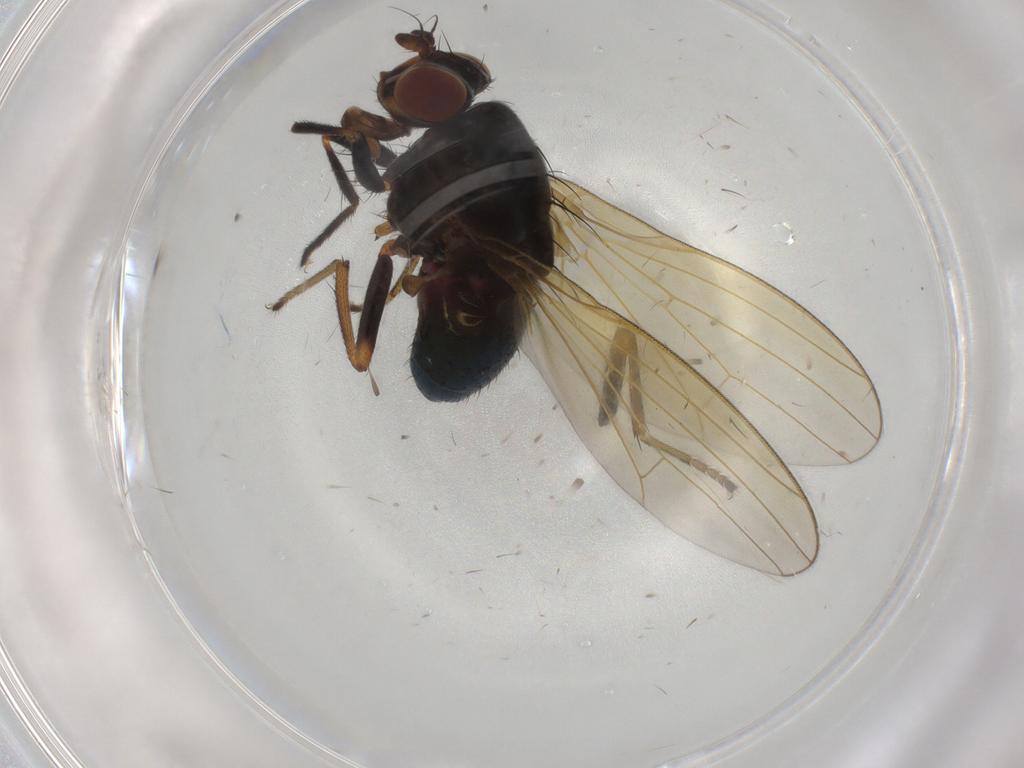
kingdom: Animalia
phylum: Arthropoda
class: Insecta
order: Diptera
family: Lauxaniidae
